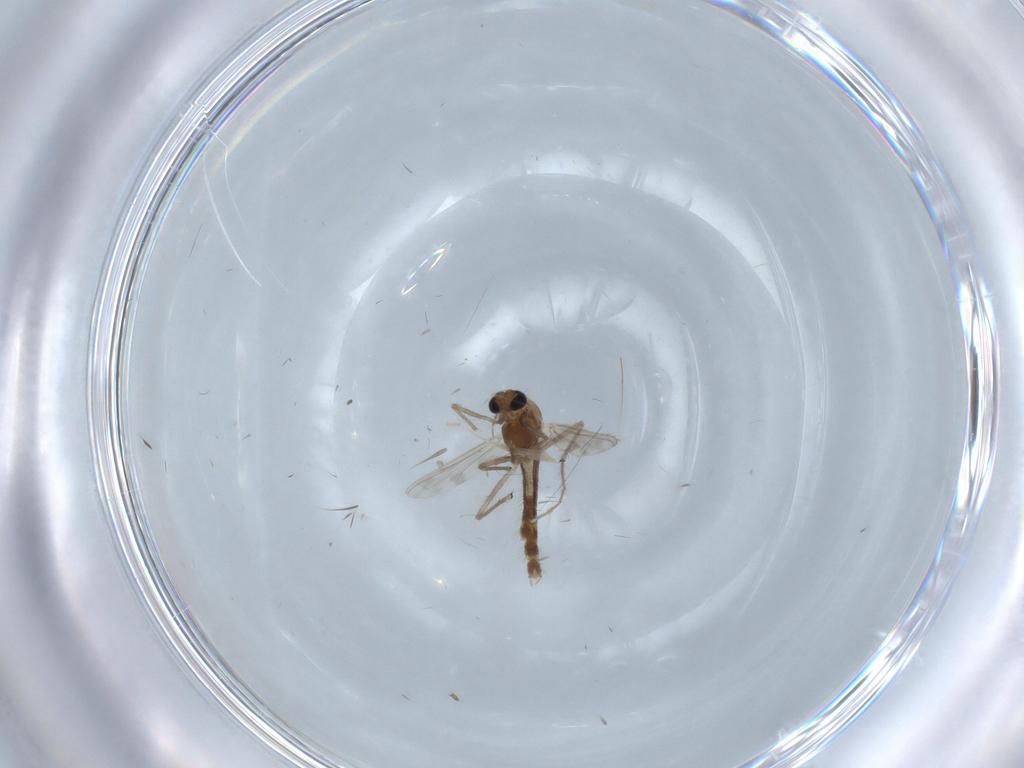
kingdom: Animalia
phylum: Arthropoda
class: Insecta
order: Diptera
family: Chironomidae
